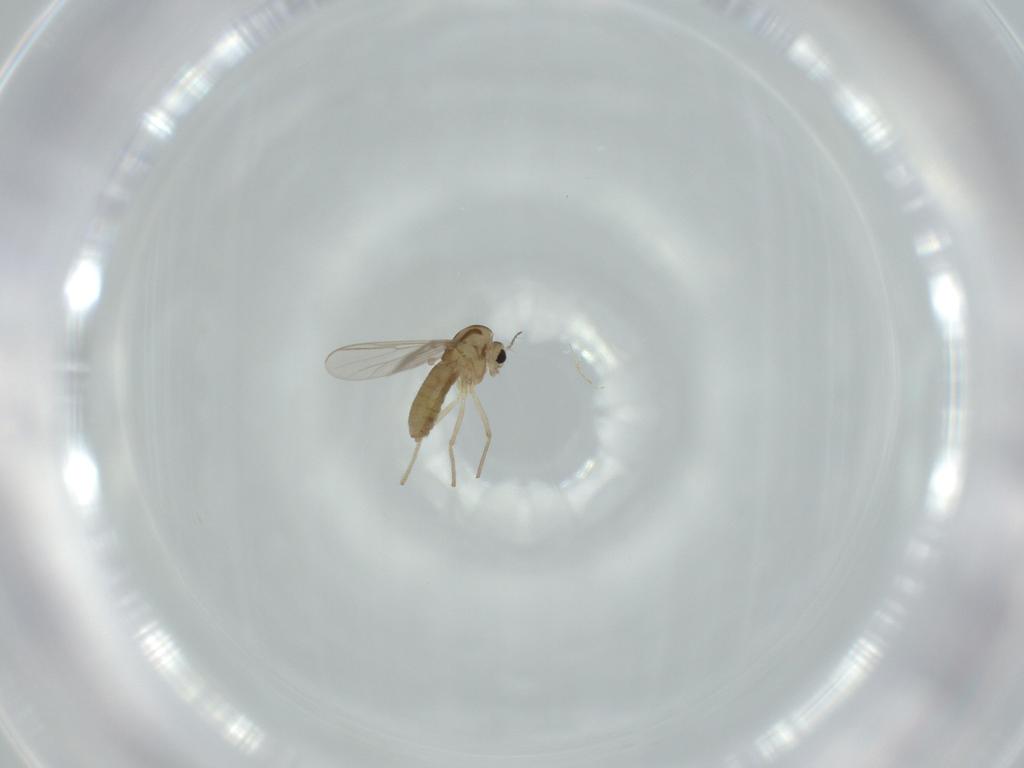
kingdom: Animalia
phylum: Arthropoda
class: Insecta
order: Diptera
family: Chironomidae
